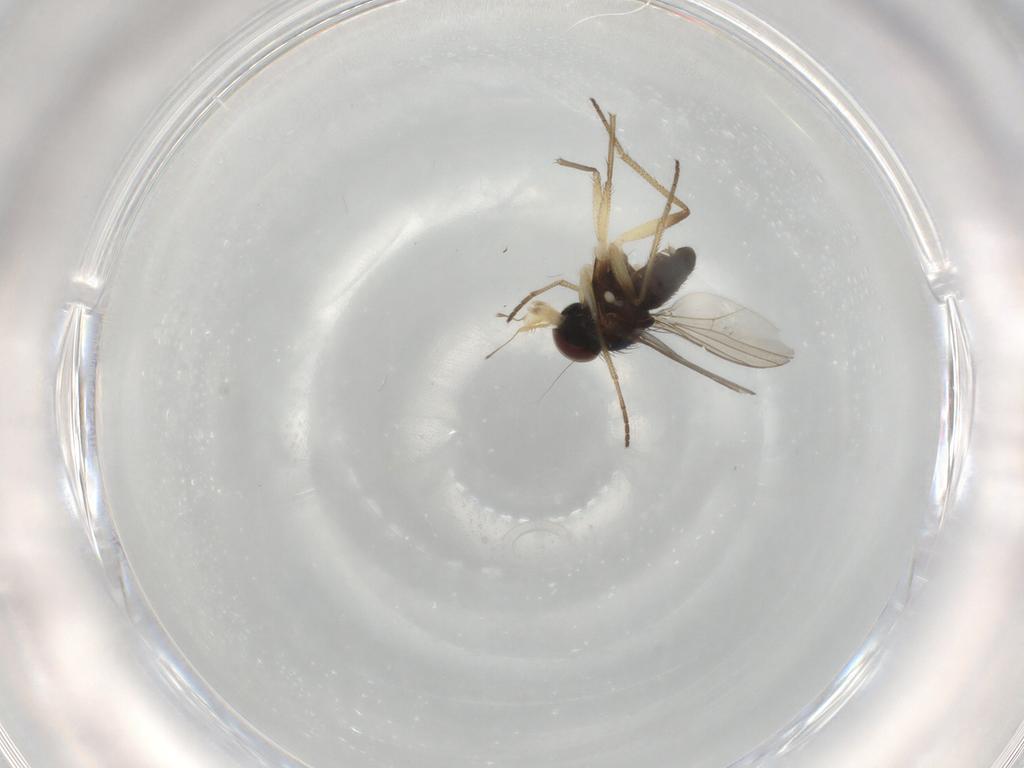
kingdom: Animalia
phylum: Arthropoda
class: Insecta
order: Diptera
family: Dolichopodidae
